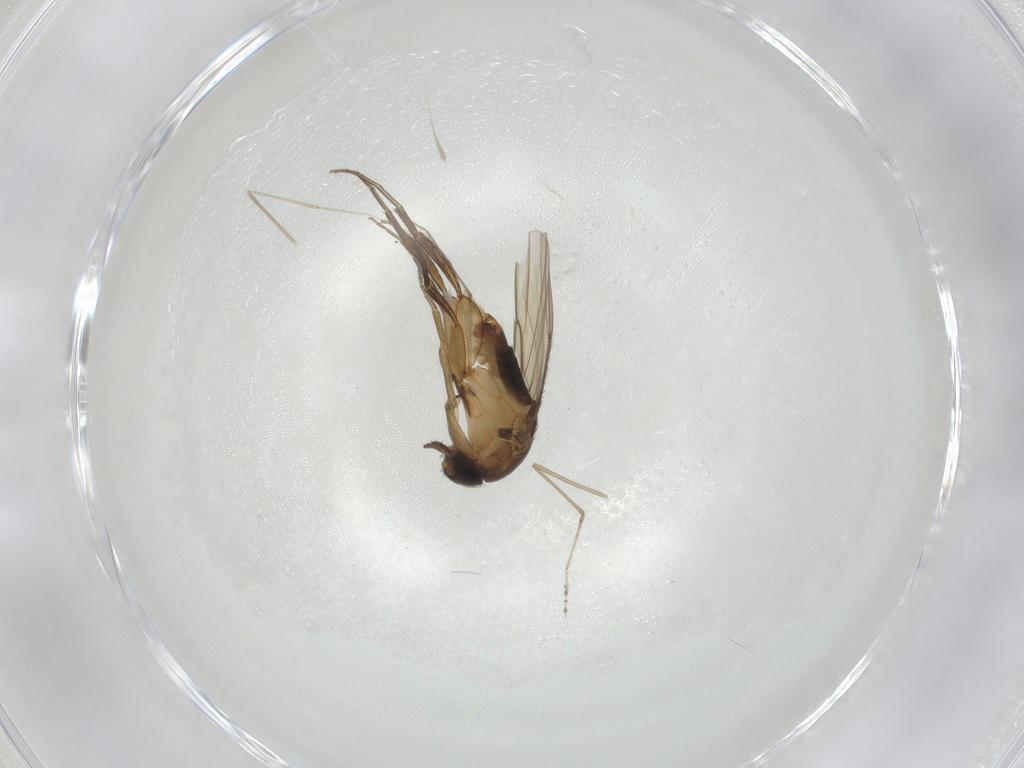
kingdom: Animalia
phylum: Arthropoda
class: Insecta
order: Diptera
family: Phoridae
